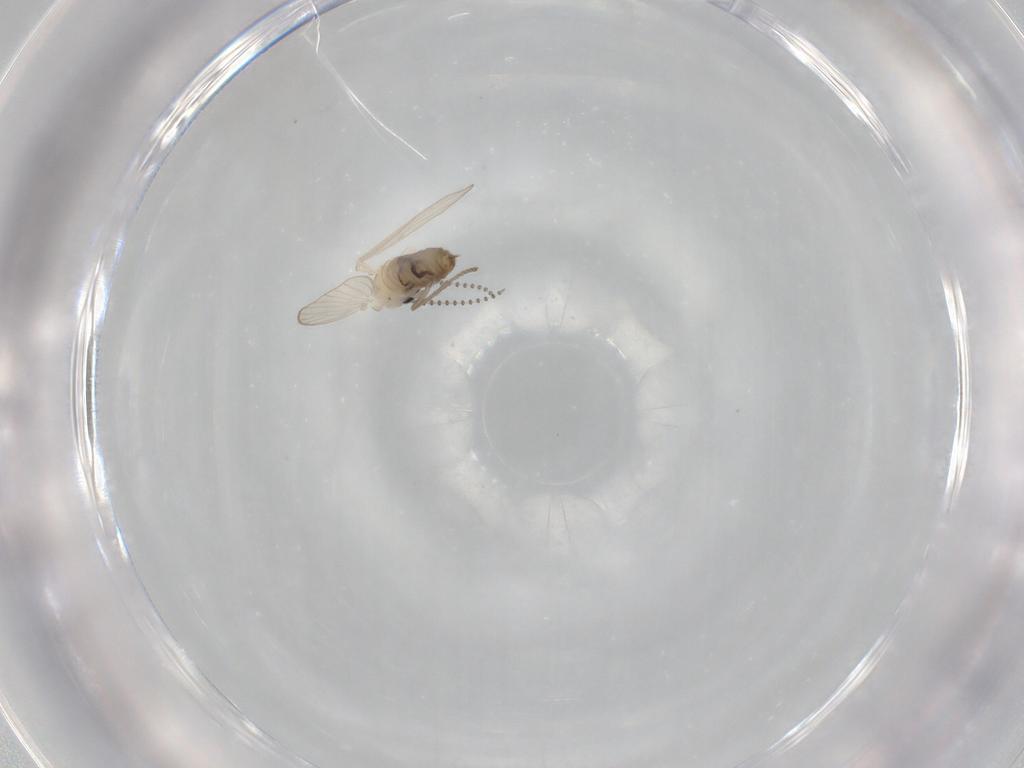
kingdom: Animalia
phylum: Arthropoda
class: Insecta
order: Diptera
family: Psychodidae
